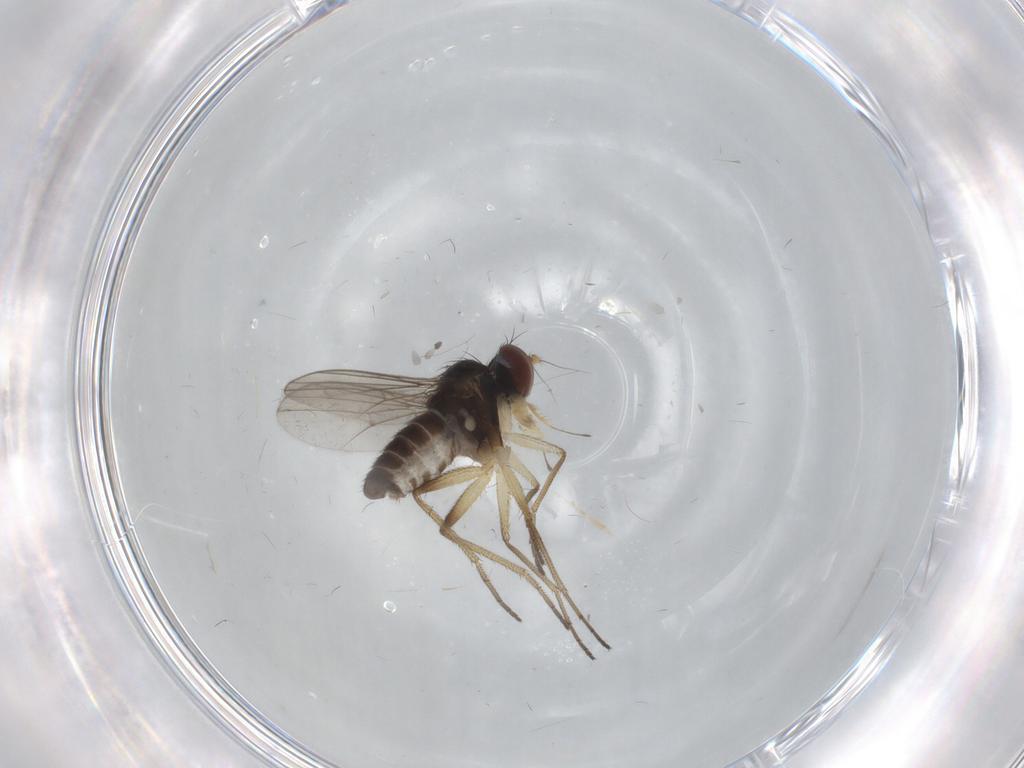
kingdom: Animalia
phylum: Arthropoda
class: Insecta
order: Diptera
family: Dolichopodidae
